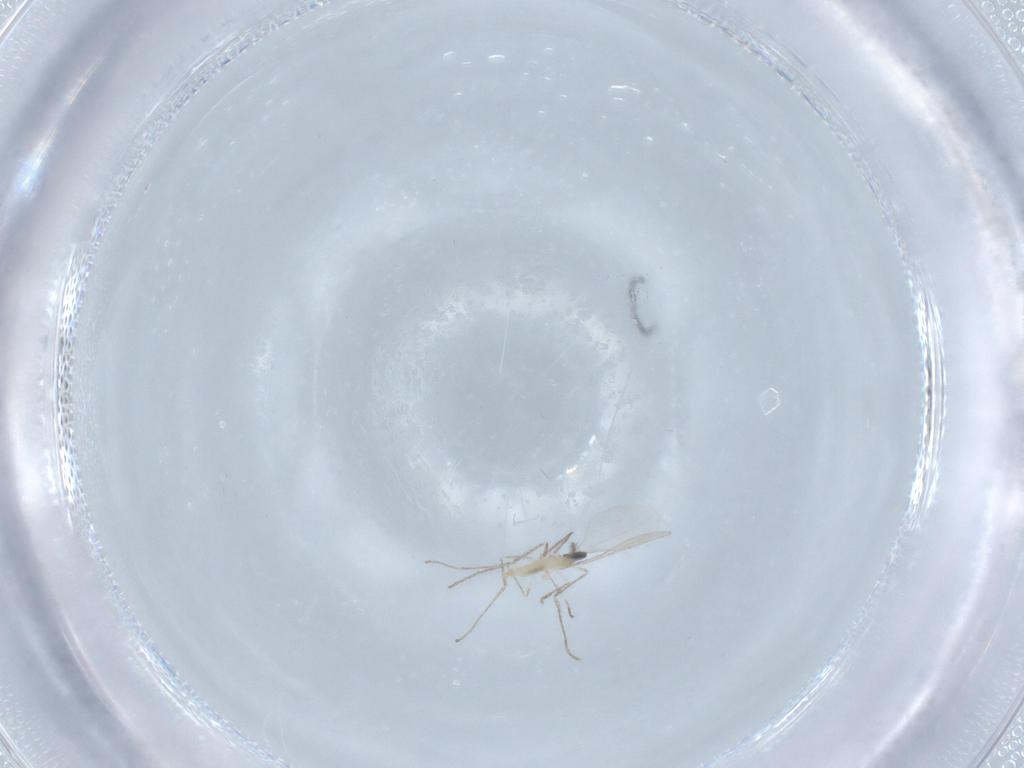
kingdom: Animalia
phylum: Arthropoda
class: Insecta
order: Diptera
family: Cecidomyiidae
